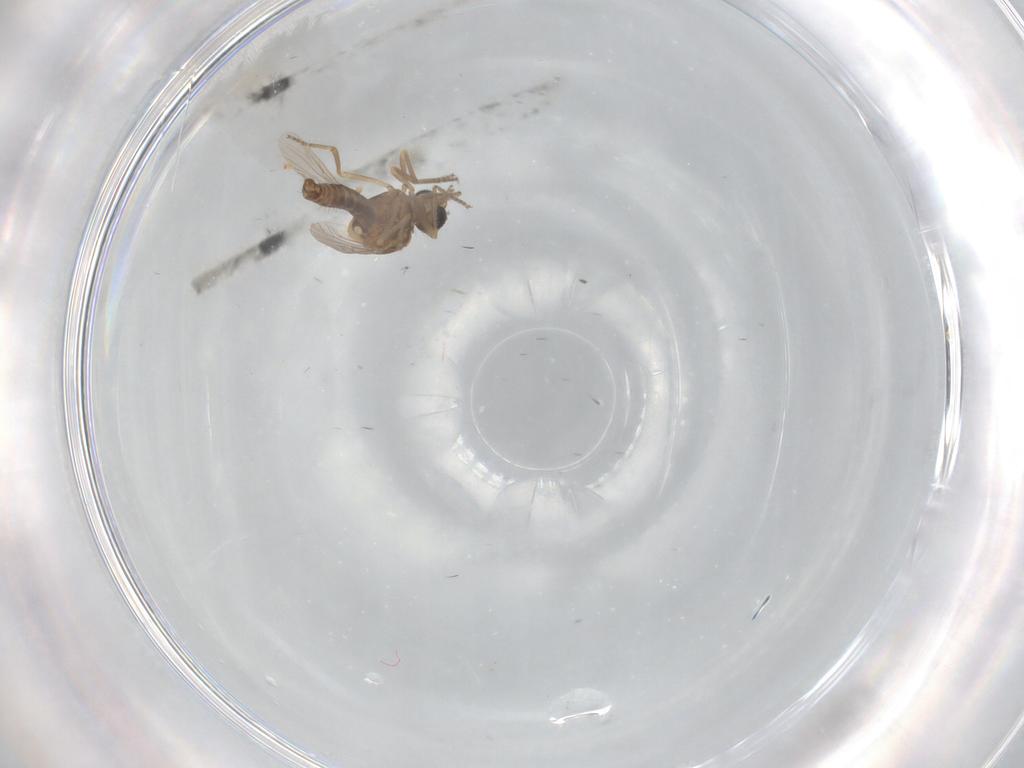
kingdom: Animalia
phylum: Arthropoda
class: Insecta
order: Diptera
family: Ceratopogonidae
